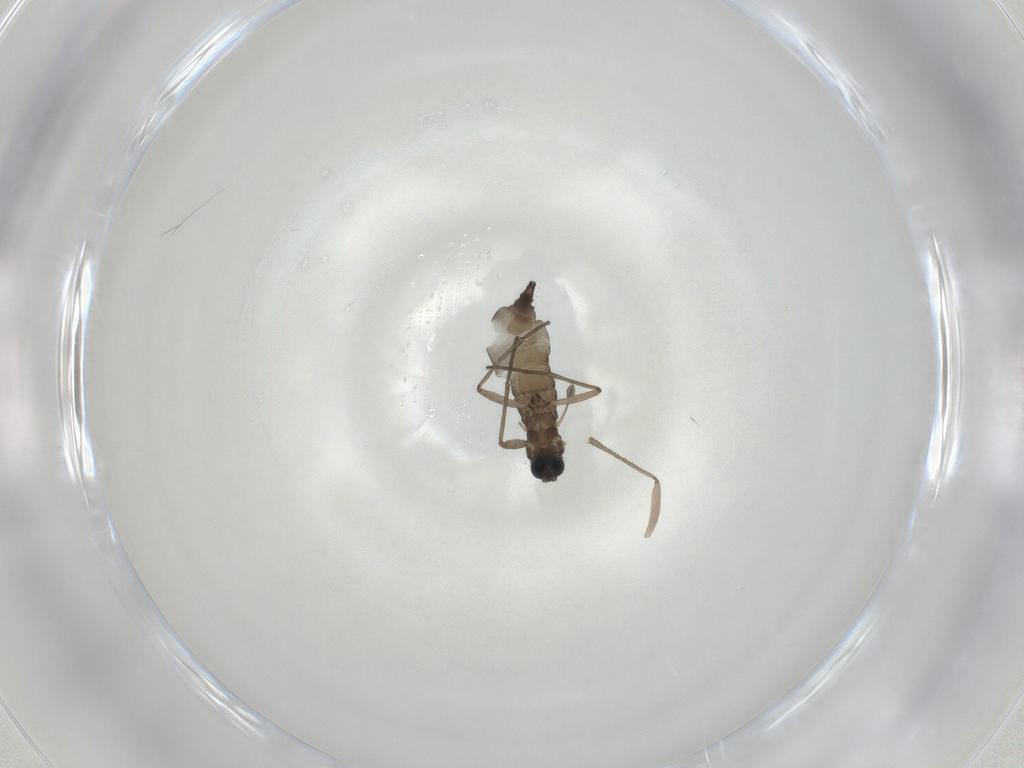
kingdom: Animalia
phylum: Arthropoda
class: Insecta
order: Diptera
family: Sciaridae
